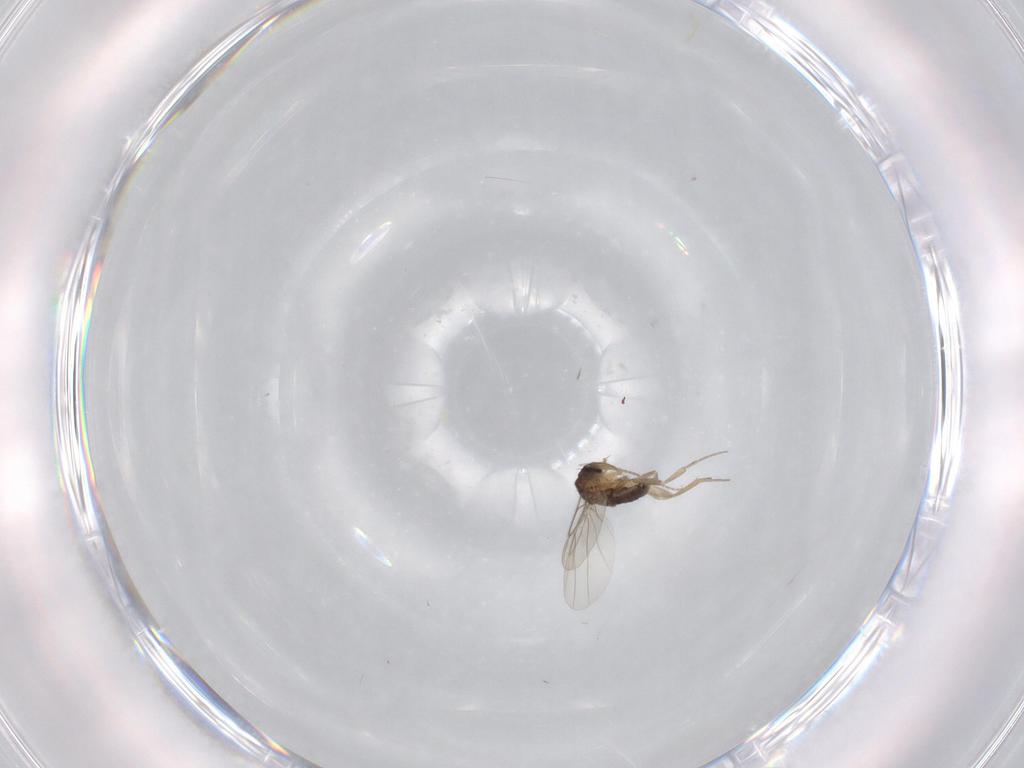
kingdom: Animalia
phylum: Arthropoda
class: Insecta
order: Diptera
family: Phoridae
